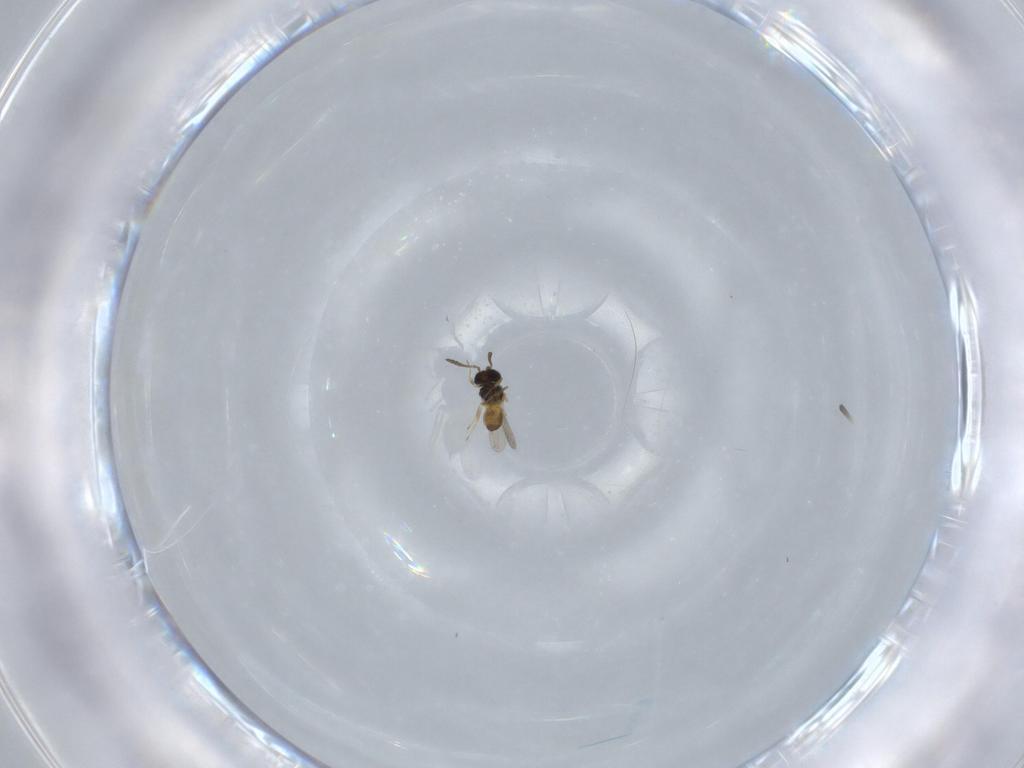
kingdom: Animalia
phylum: Arthropoda
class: Insecta
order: Hymenoptera
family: Scelionidae
